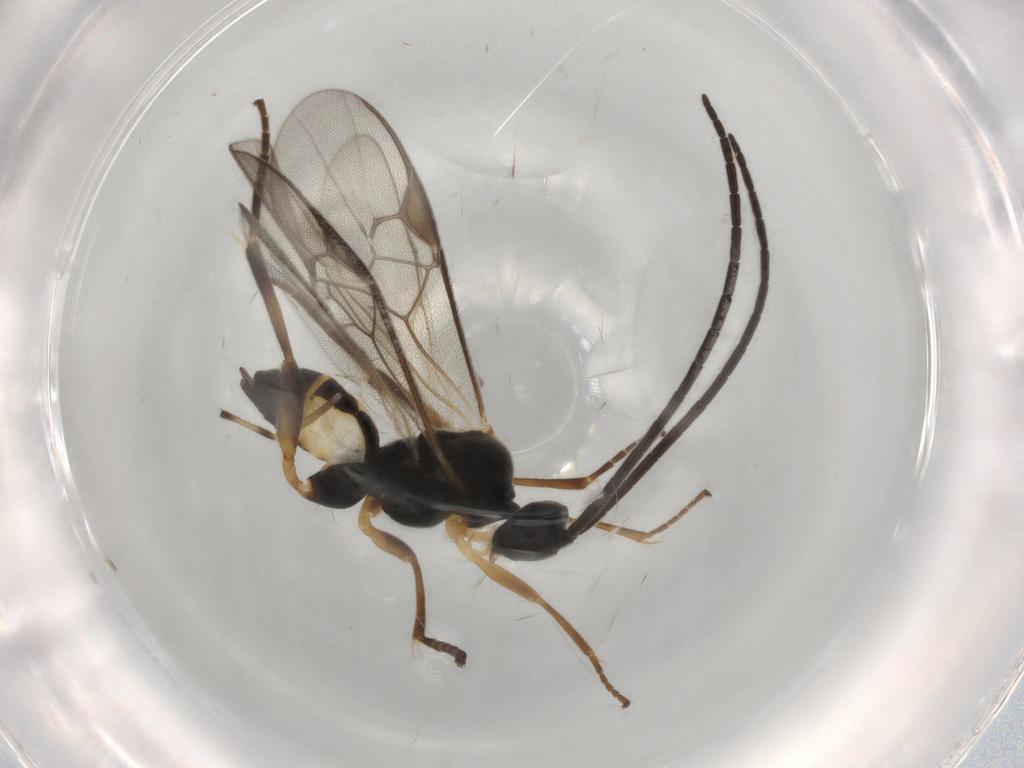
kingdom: Animalia
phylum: Arthropoda
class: Insecta
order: Hymenoptera
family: Braconidae
